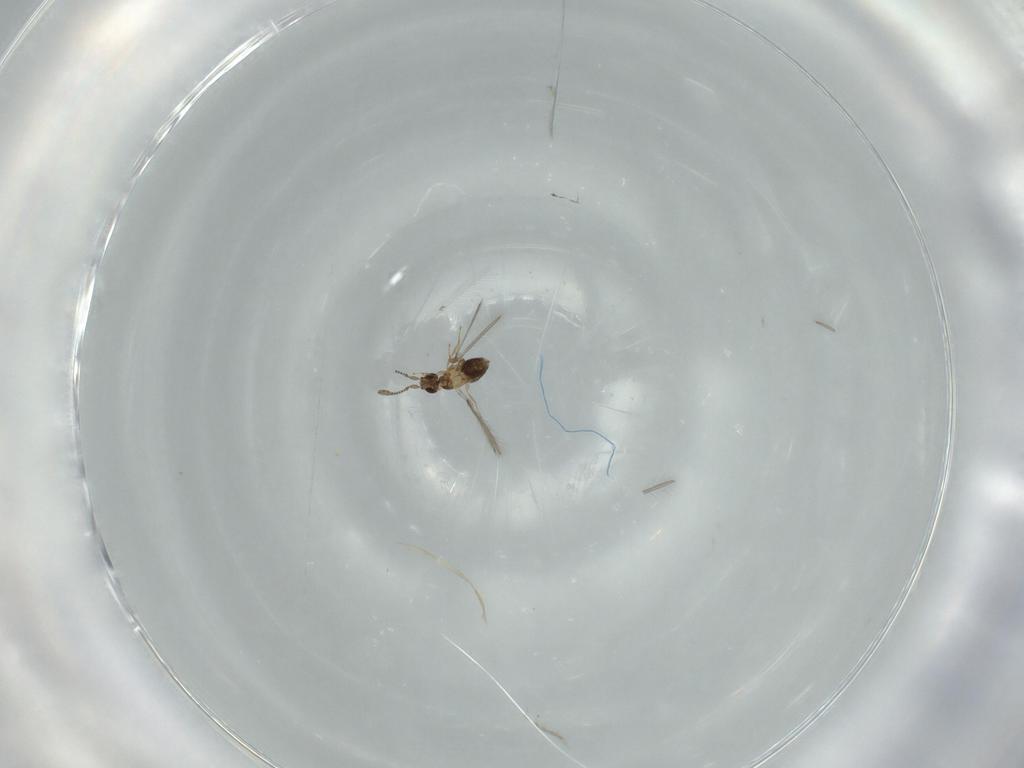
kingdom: Animalia
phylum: Arthropoda
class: Insecta
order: Hymenoptera
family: Mymaridae
